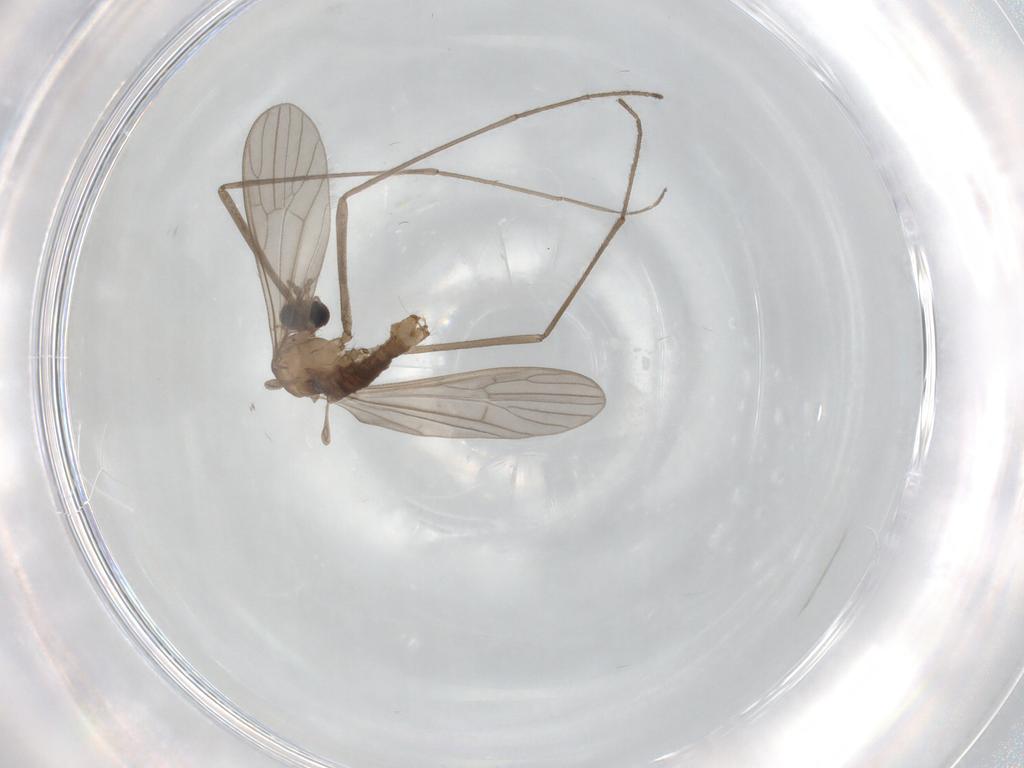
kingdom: Animalia
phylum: Arthropoda
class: Insecta
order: Diptera
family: Limoniidae
